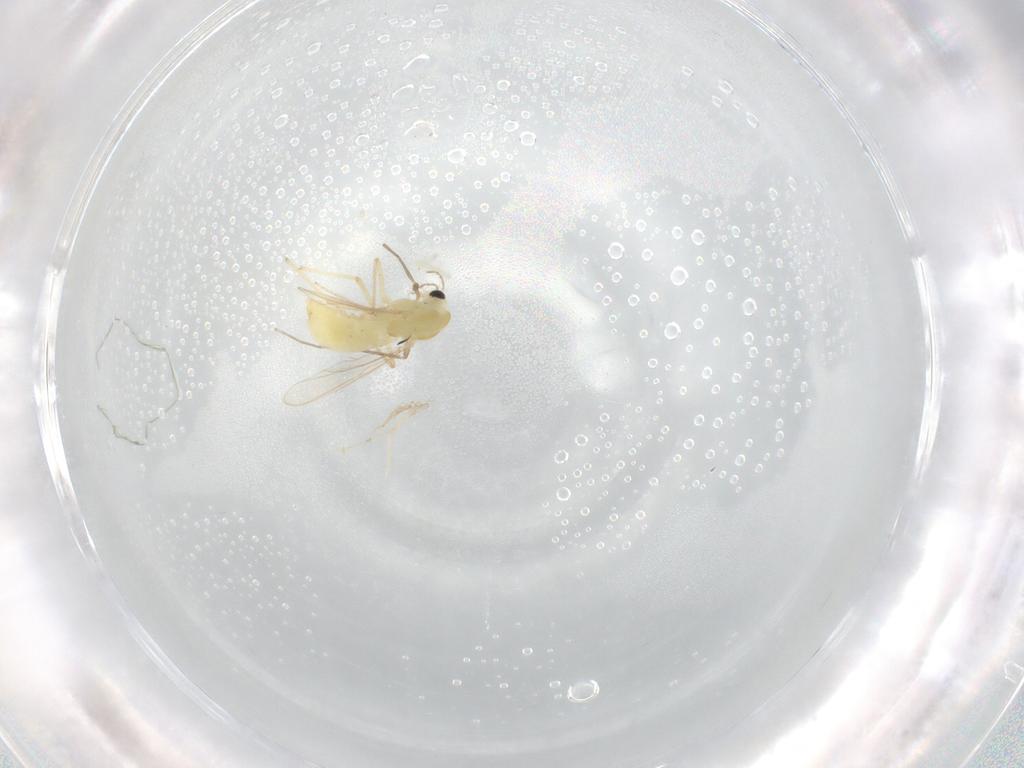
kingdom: Animalia
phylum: Arthropoda
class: Insecta
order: Diptera
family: Chironomidae
